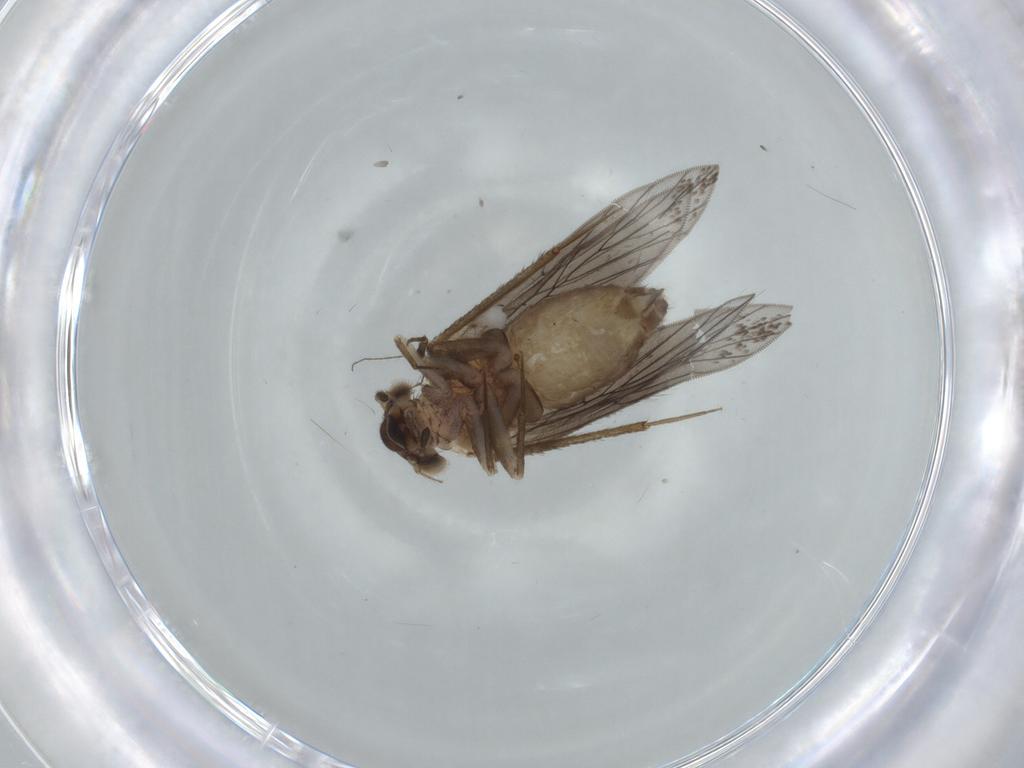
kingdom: Animalia
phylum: Arthropoda
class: Insecta
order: Psocodea
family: Lepidopsocidae
